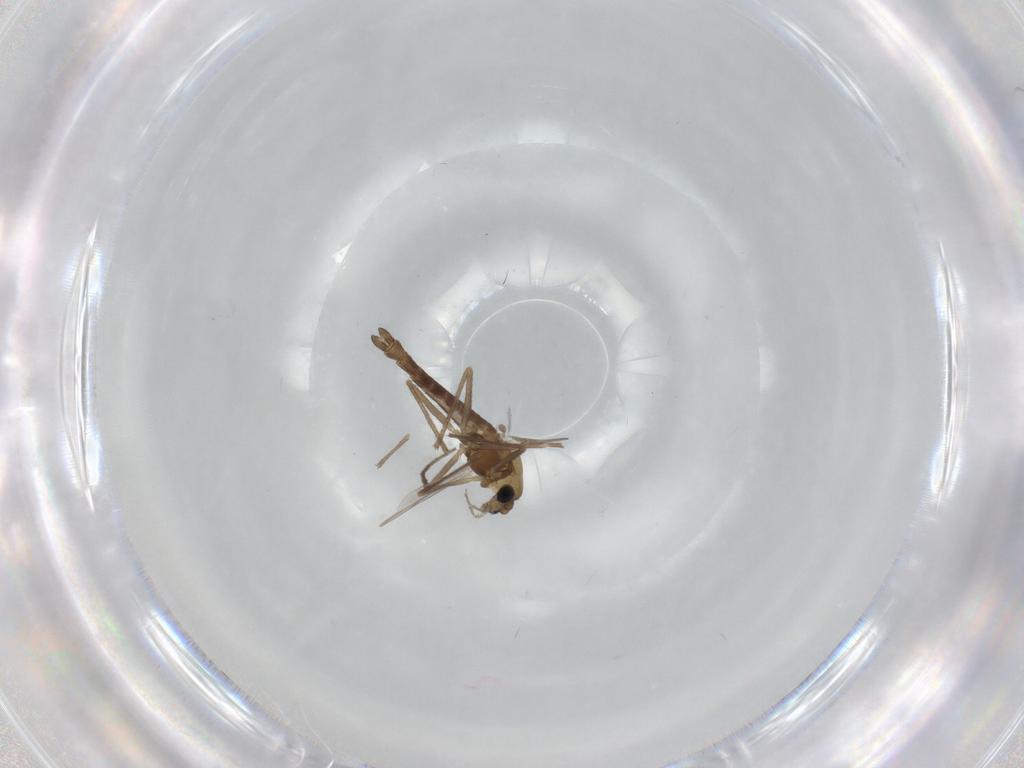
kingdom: Animalia
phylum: Arthropoda
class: Insecta
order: Diptera
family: Chironomidae
